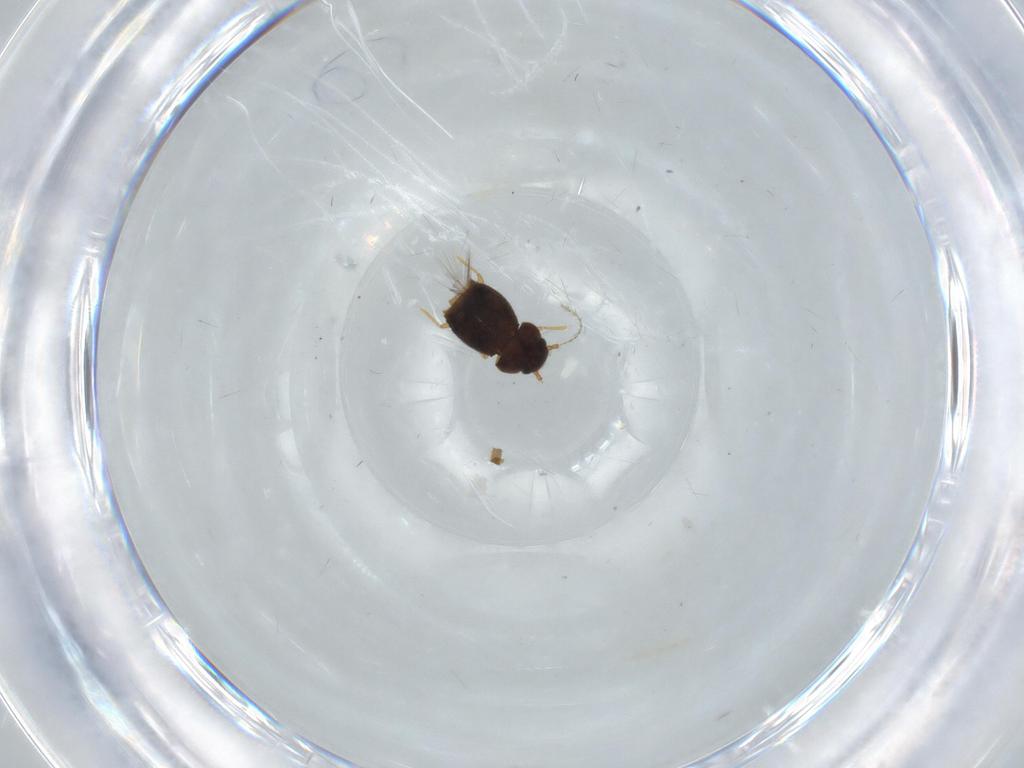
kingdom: Animalia
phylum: Arthropoda
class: Insecta
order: Coleoptera
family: Ptiliidae
